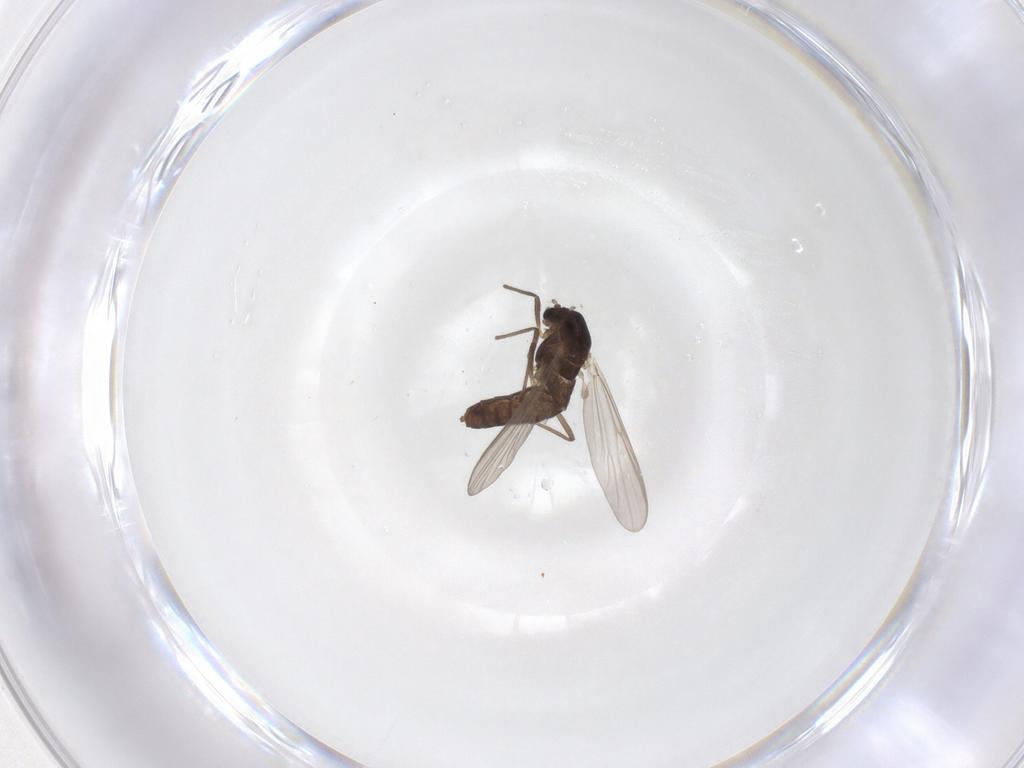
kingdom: Animalia
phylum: Arthropoda
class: Insecta
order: Diptera
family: Chironomidae
